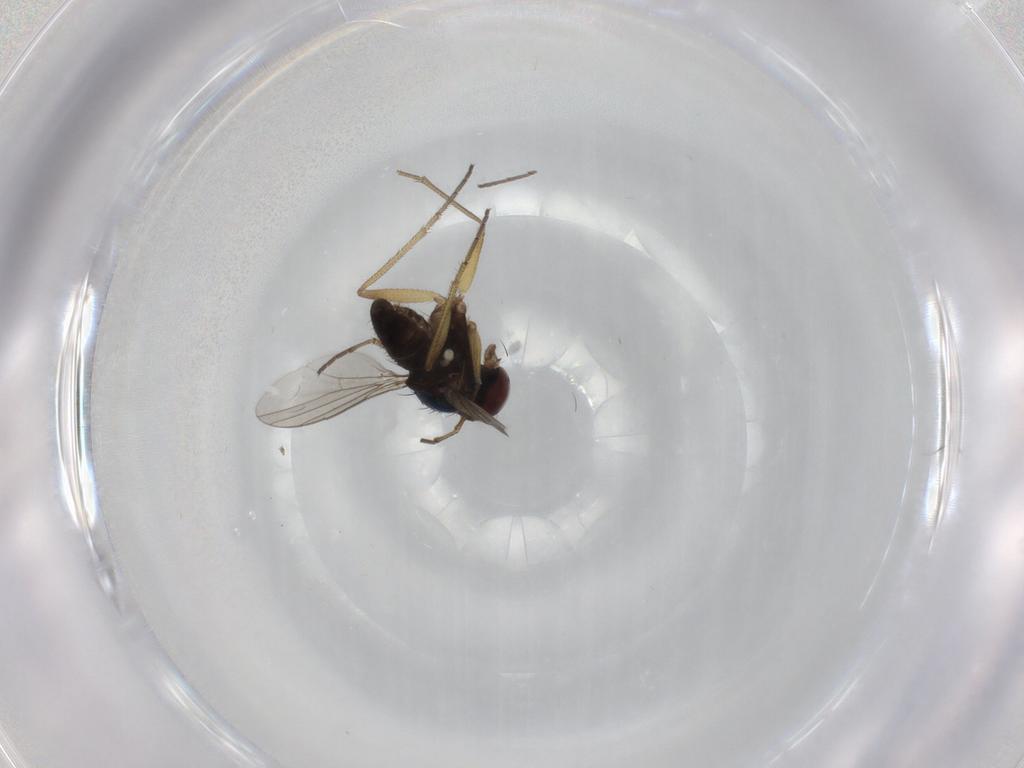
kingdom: Animalia
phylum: Arthropoda
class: Insecta
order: Diptera
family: Dolichopodidae
